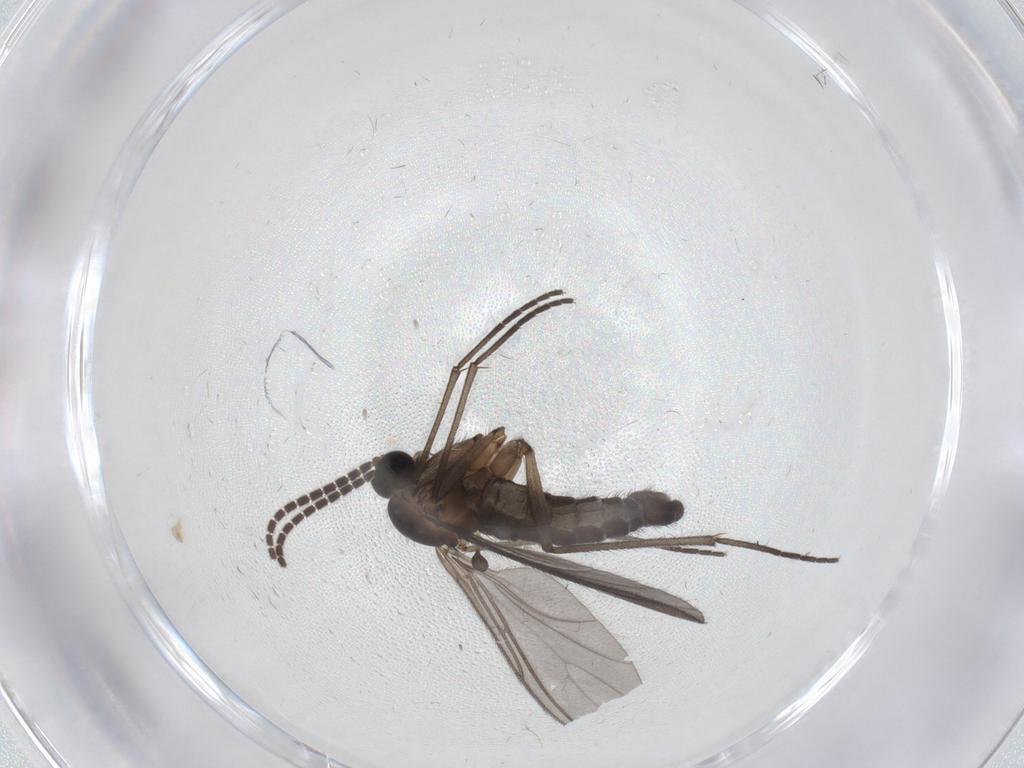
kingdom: Animalia
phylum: Arthropoda
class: Insecta
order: Diptera
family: Sciaridae
